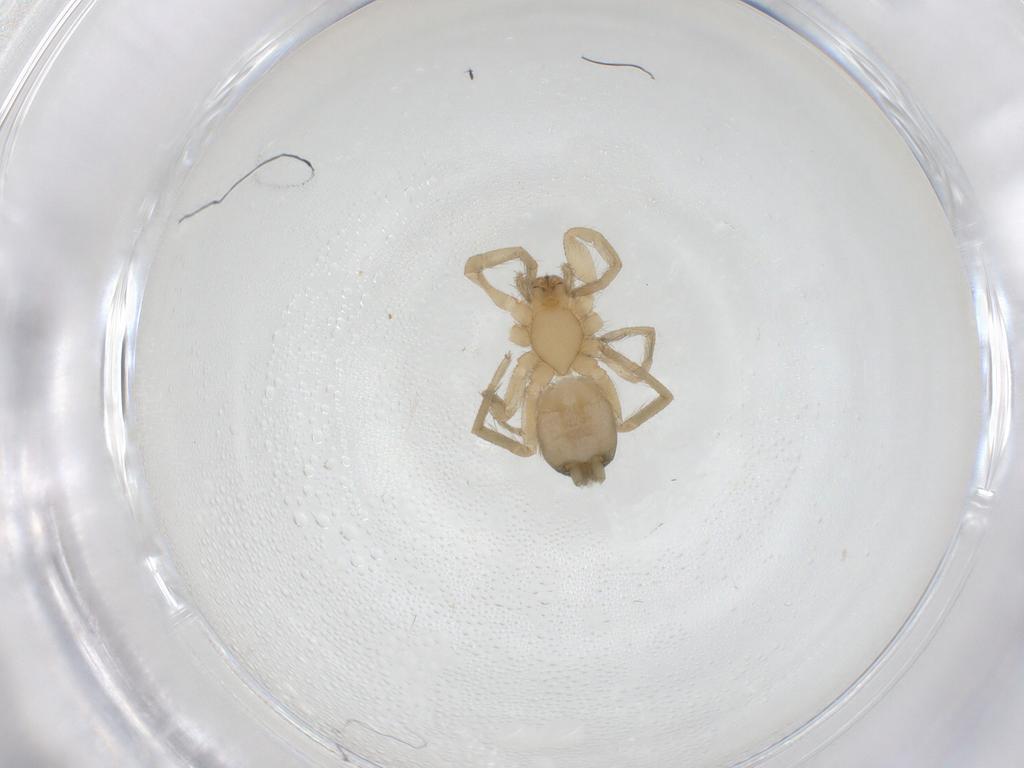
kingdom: Animalia
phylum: Arthropoda
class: Arachnida
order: Araneae
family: Gnaphosidae
